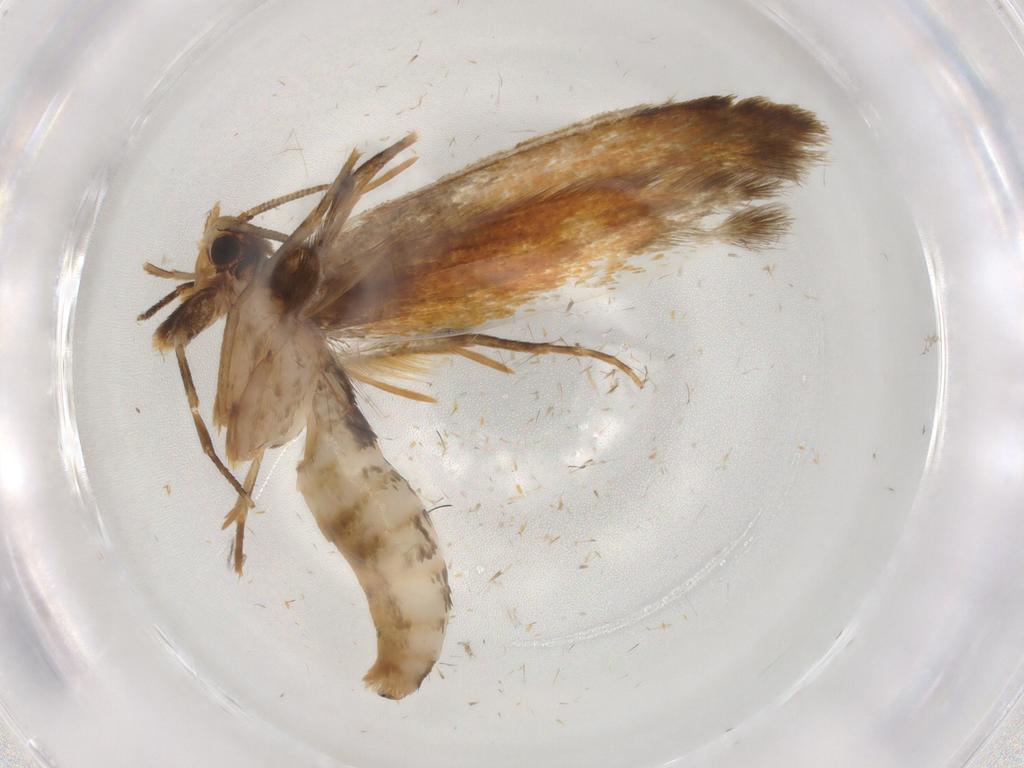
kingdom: Animalia
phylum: Arthropoda
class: Insecta
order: Lepidoptera
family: Tineidae
